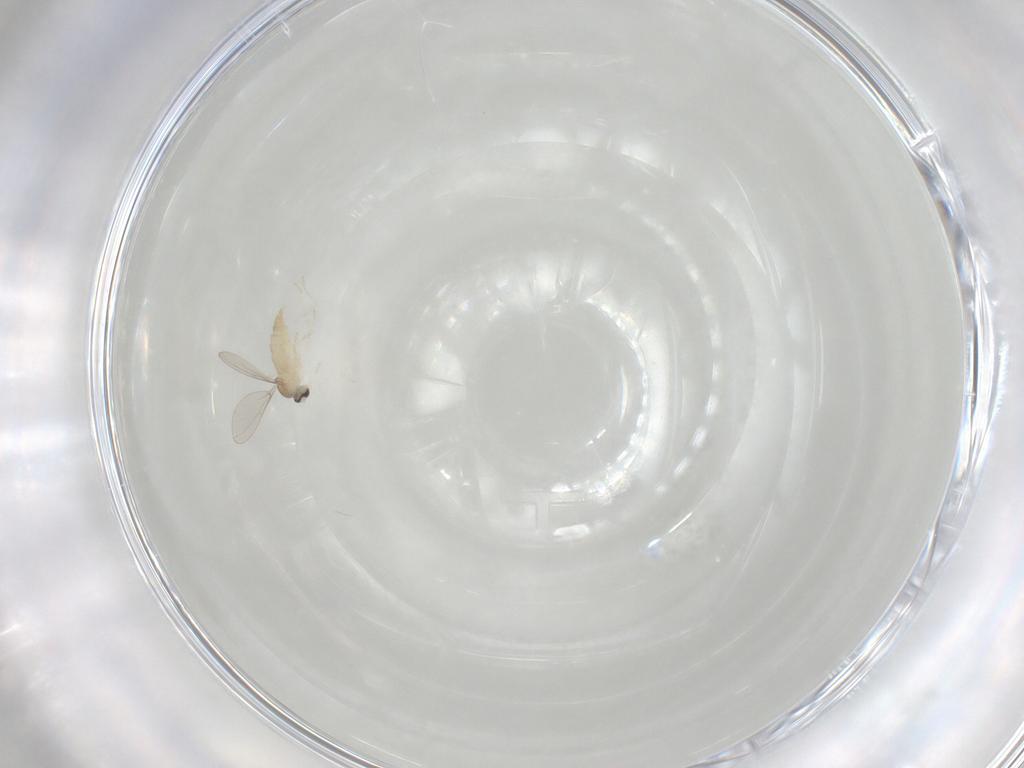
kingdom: Animalia
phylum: Arthropoda
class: Insecta
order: Diptera
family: Cecidomyiidae
